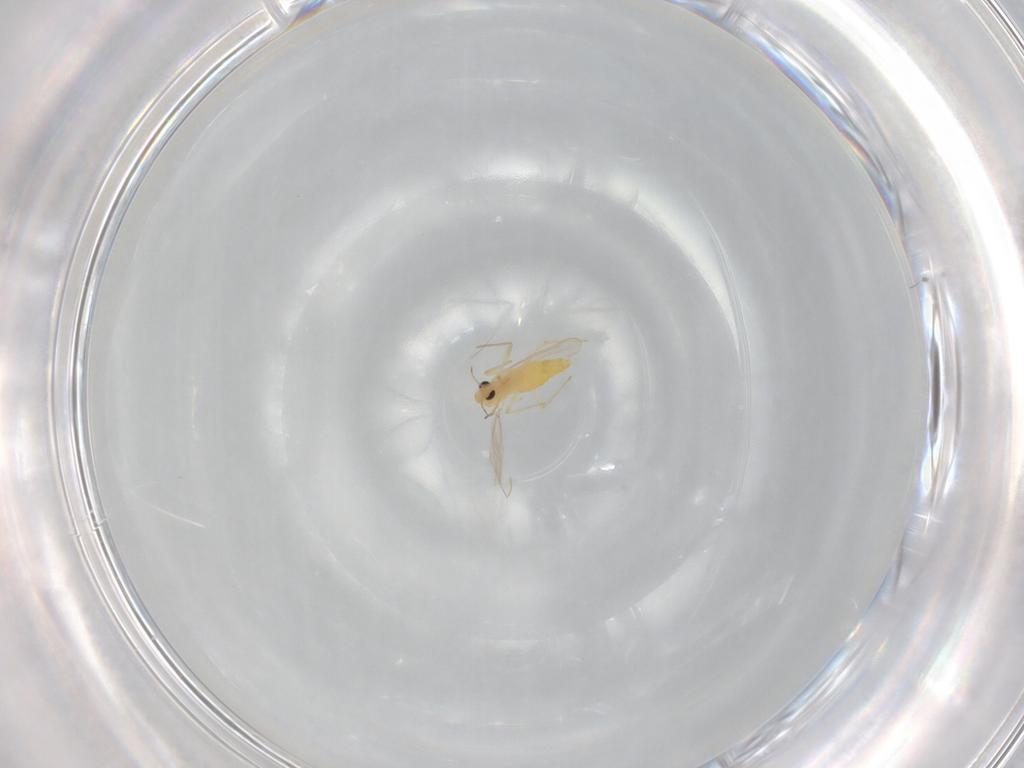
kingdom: Animalia
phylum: Arthropoda
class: Insecta
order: Diptera
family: Chironomidae
